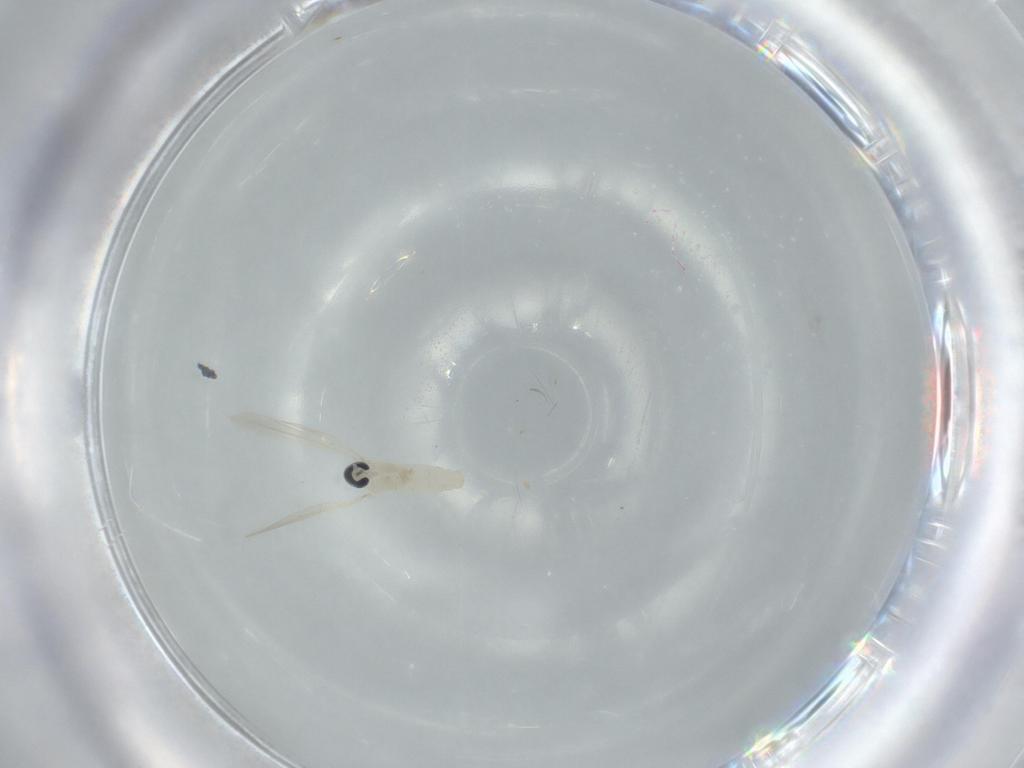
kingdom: Animalia
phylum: Arthropoda
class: Insecta
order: Diptera
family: Cecidomyiidae
